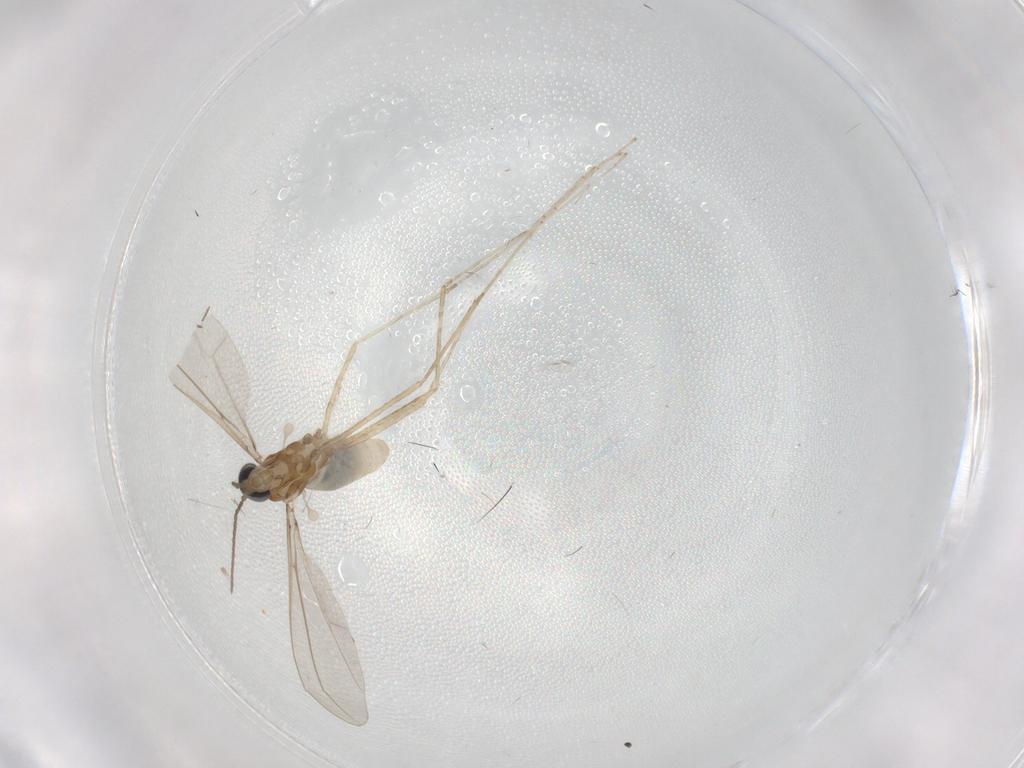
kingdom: Animalia
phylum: Arthropoda
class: Insecta
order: Diptera
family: Cecidomyiidae
